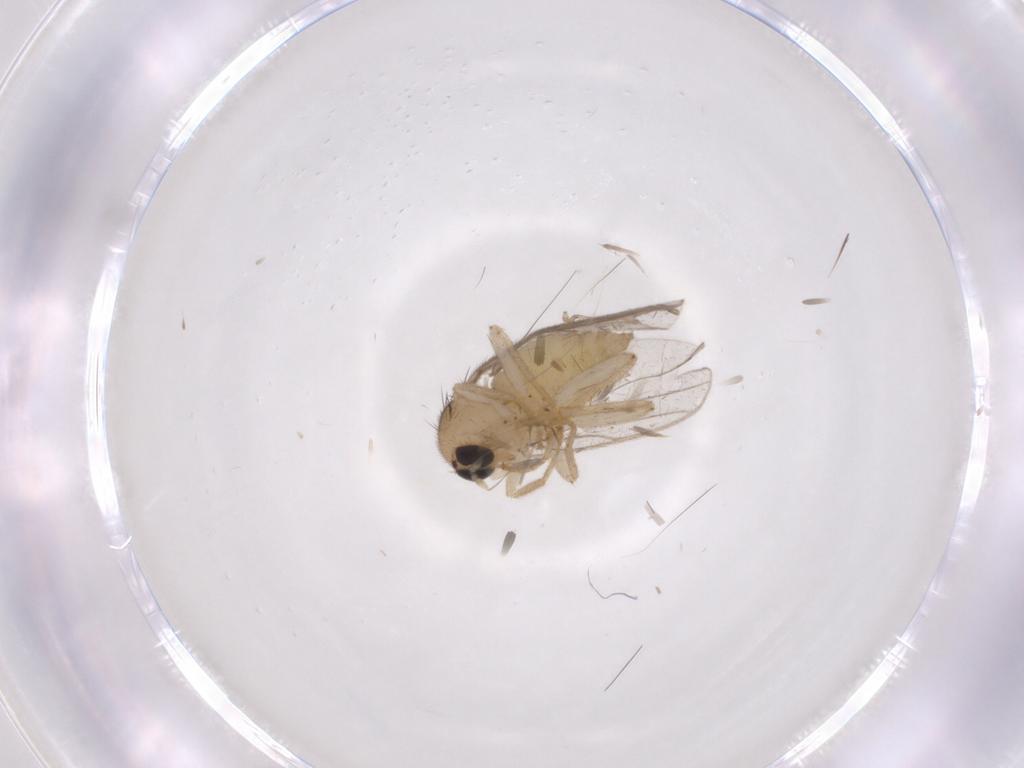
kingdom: Animalia
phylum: Arthropoda
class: Insecta
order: Diptera
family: Hybotidae
